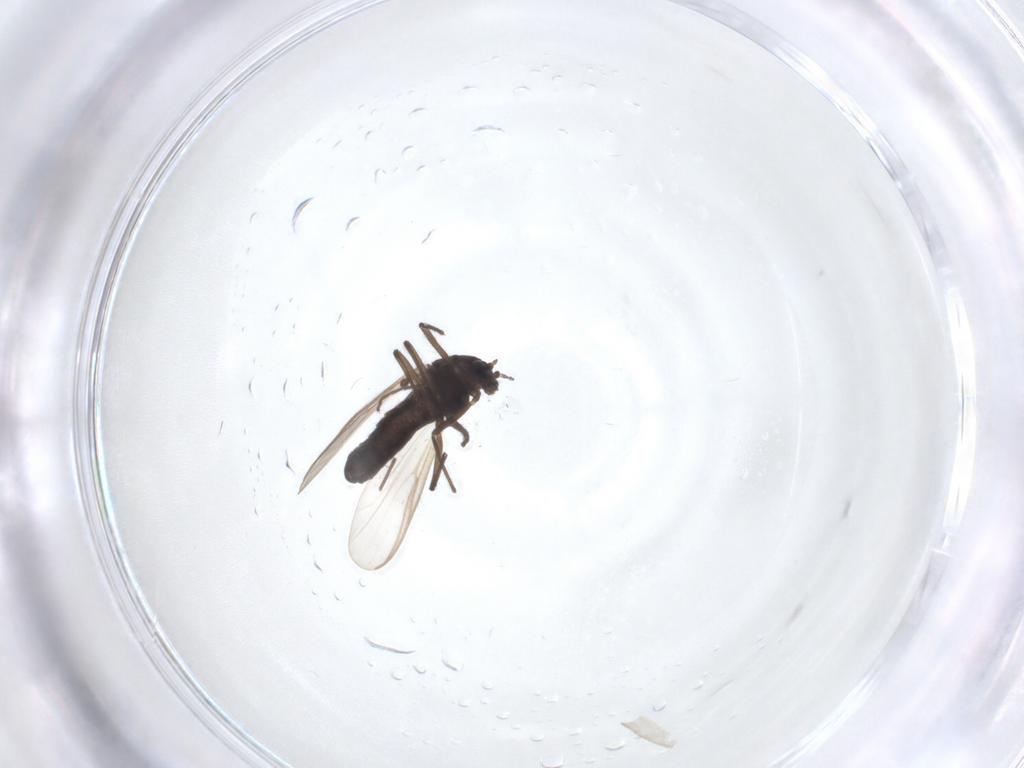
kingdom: Animalia
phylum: Arthropoda
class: Insecta
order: Diptera
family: Chironomidae
